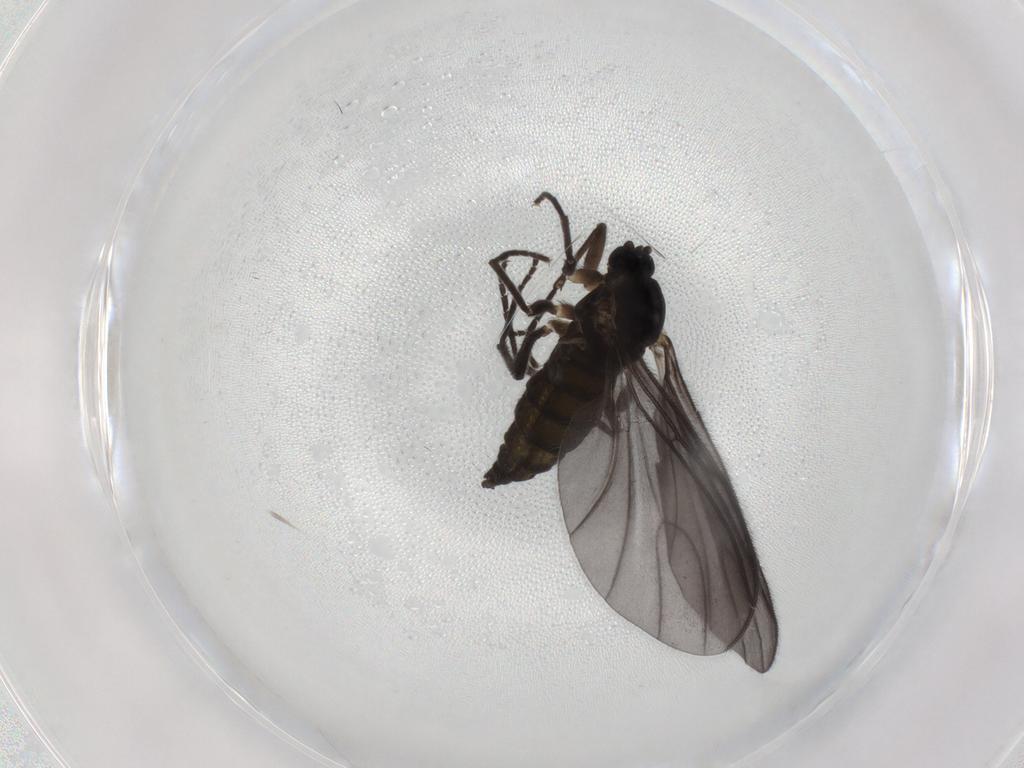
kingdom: Animalia
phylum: Arthropoda
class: Insecta
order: Diptera
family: Sciaridae
